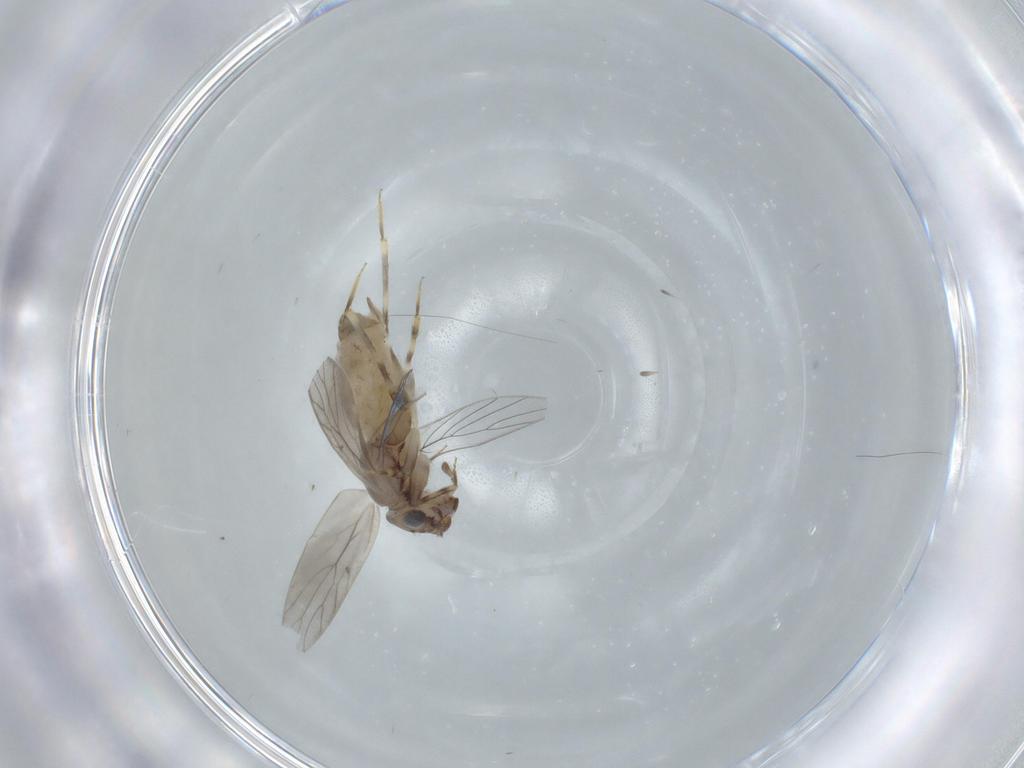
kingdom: Animalia
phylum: Arthropoda
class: Insecta
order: Psocodea
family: Lepidopsocidae
